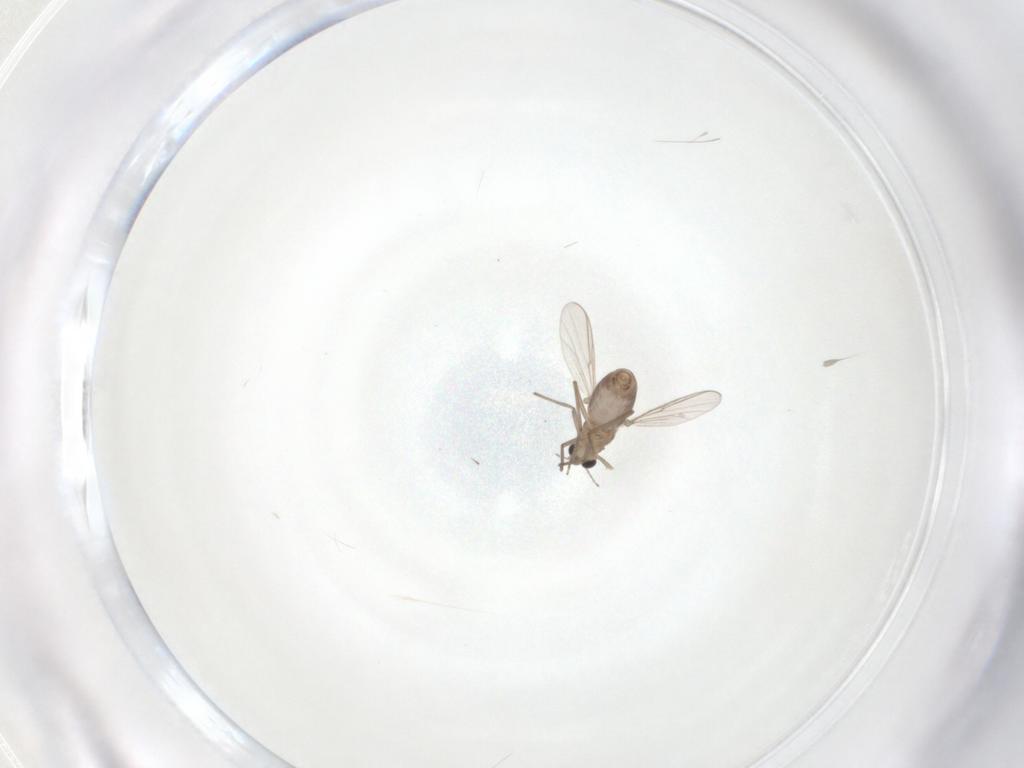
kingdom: Animalia
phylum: Arthropoda
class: Insecta
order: Diptera
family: Chironomidae
